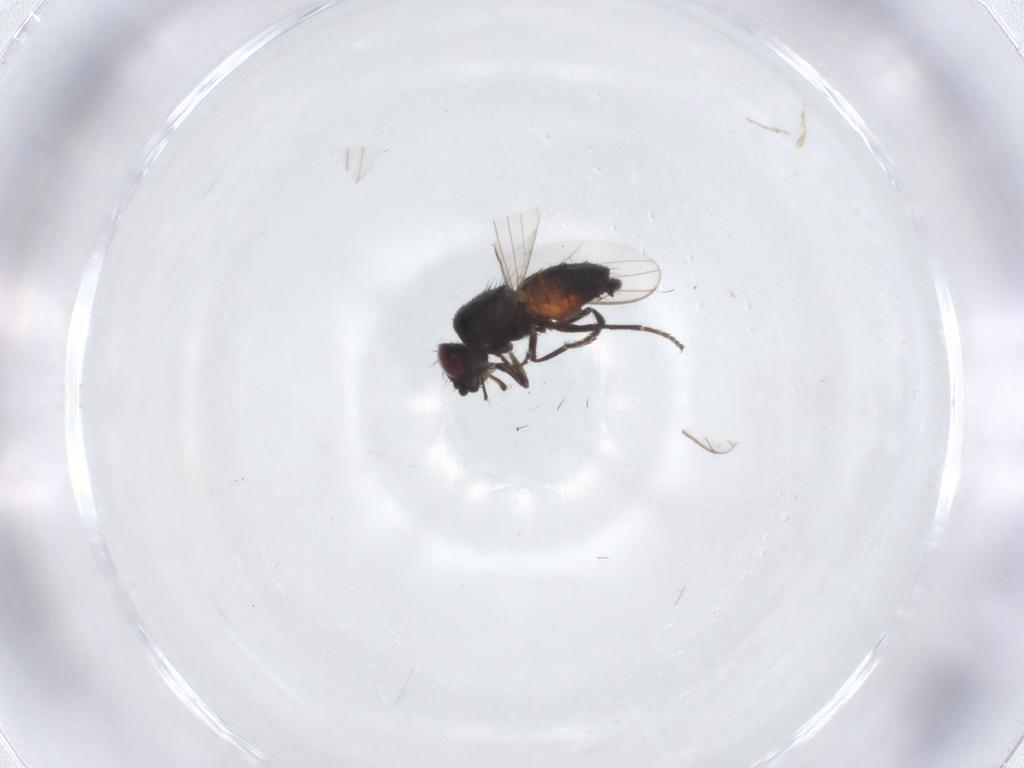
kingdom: Animalia
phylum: Arthropoda
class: Insecta
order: Diptera
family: Milichiidae
